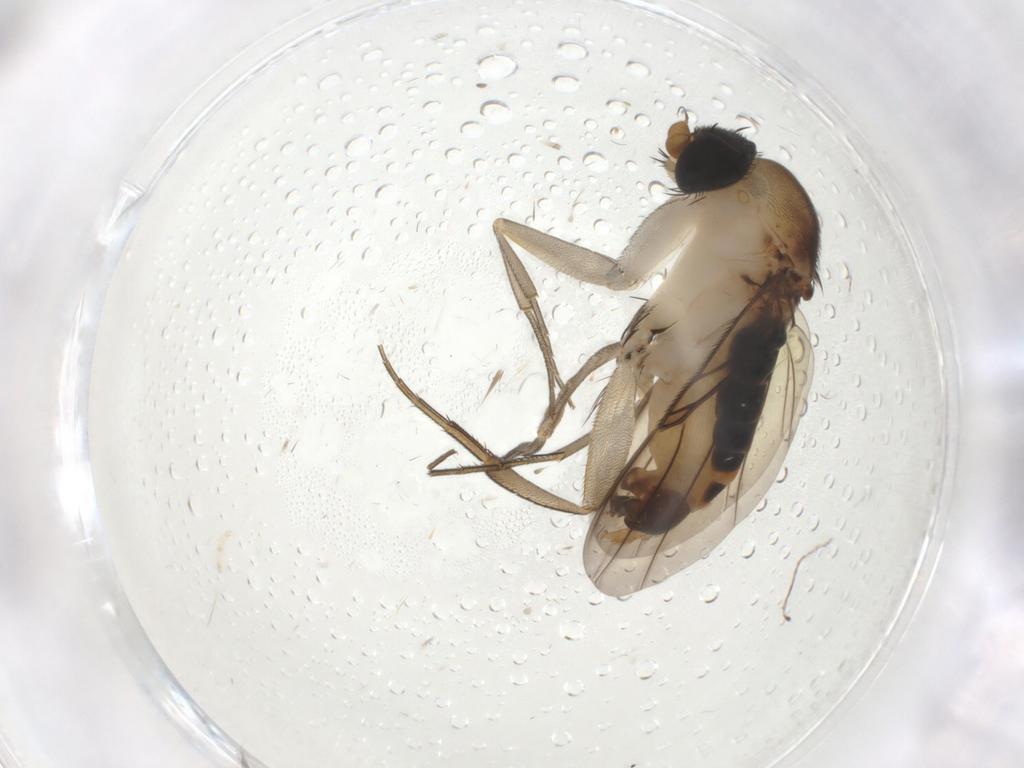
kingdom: Animalia
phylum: Arthropoda
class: Insecta
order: Diptera
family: Phoridae
